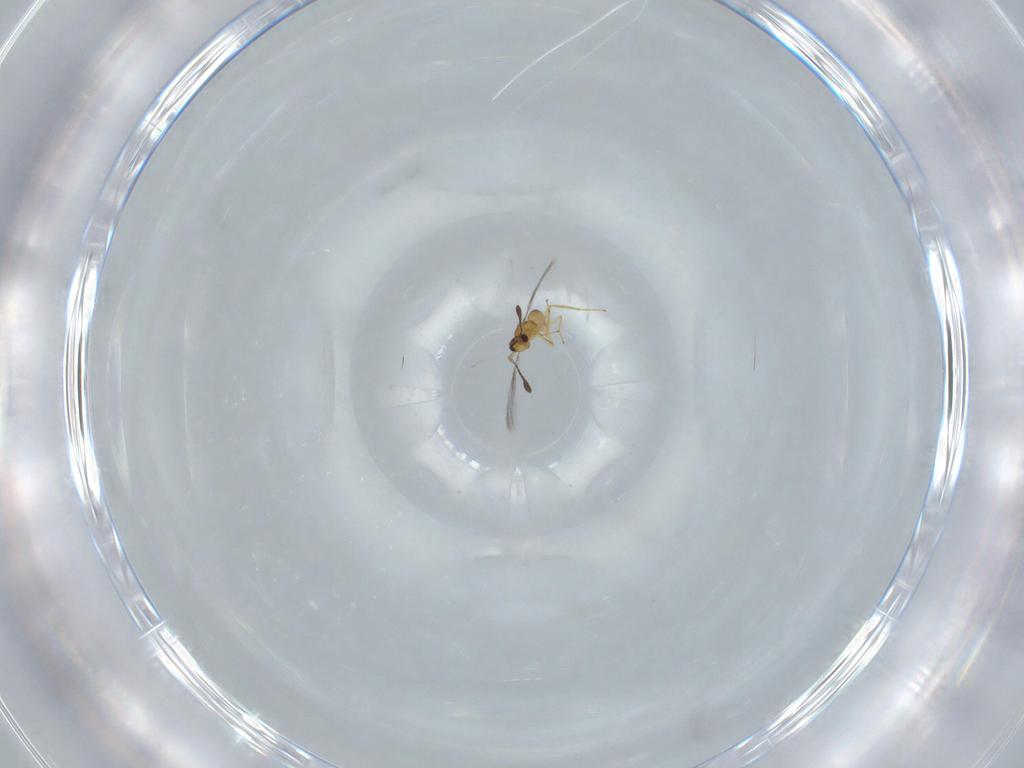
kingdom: Animalia
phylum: Arthropoda
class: Insecta
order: Hymenoptera
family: Mymaridae
